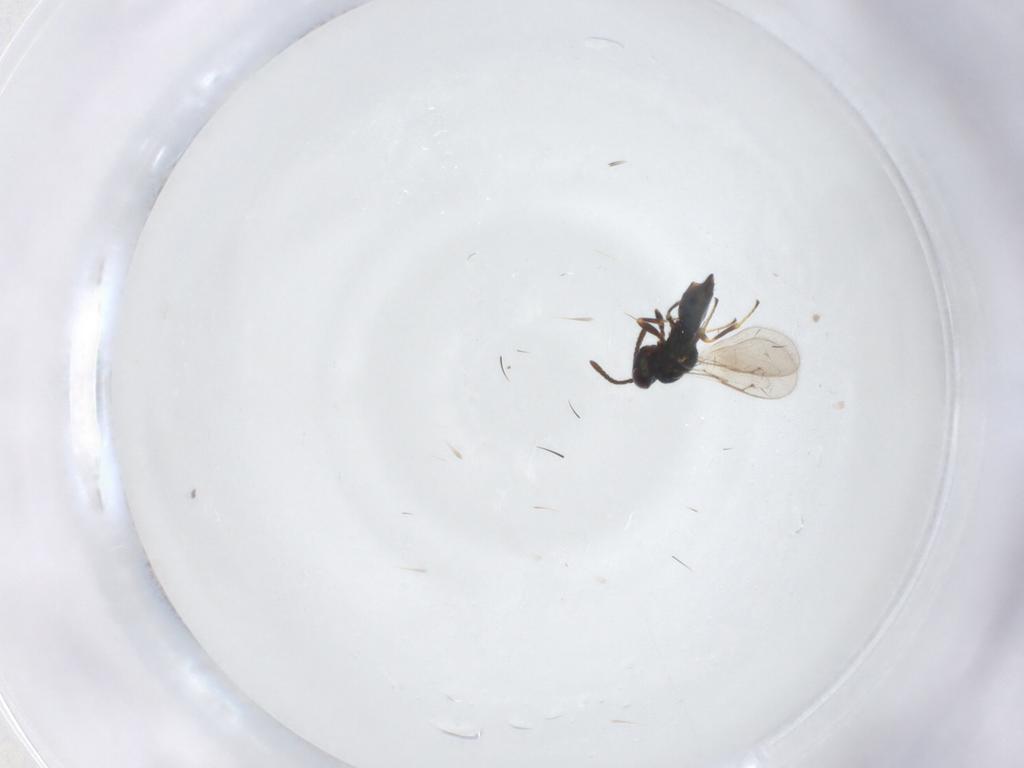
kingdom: Animalia
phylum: Arthropoda
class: Insecta
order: Hymenoptera
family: Pteromalidae
